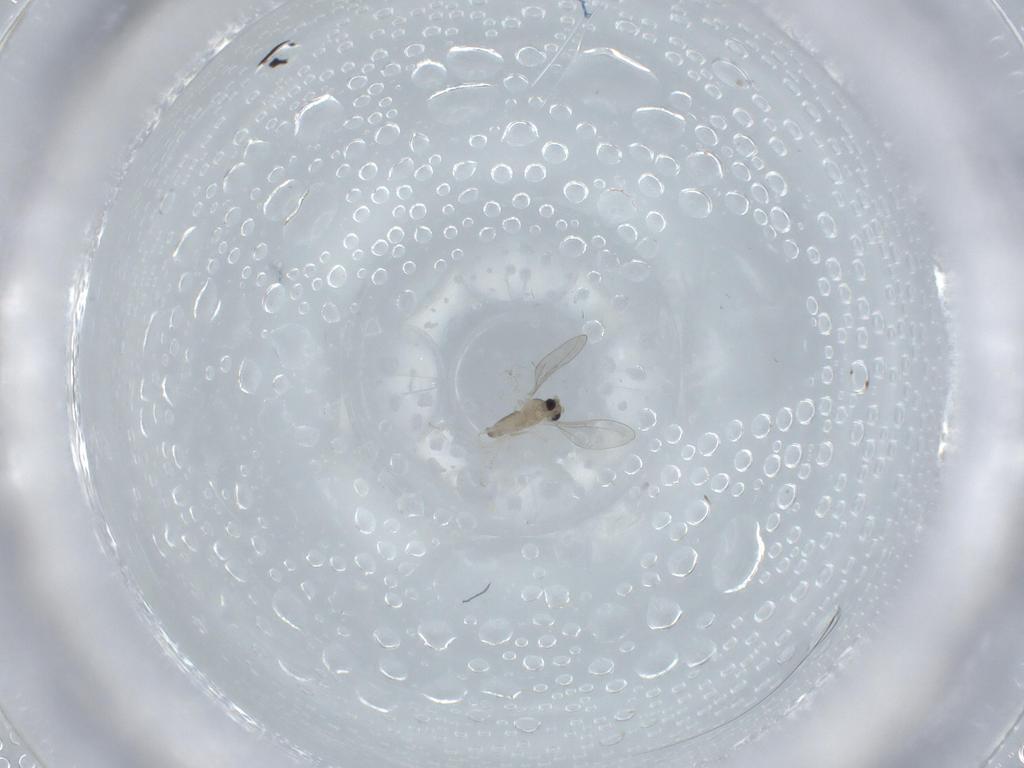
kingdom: Animalia
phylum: Arthropoda
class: Insecta
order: Diptera
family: Cecidomyiidae
